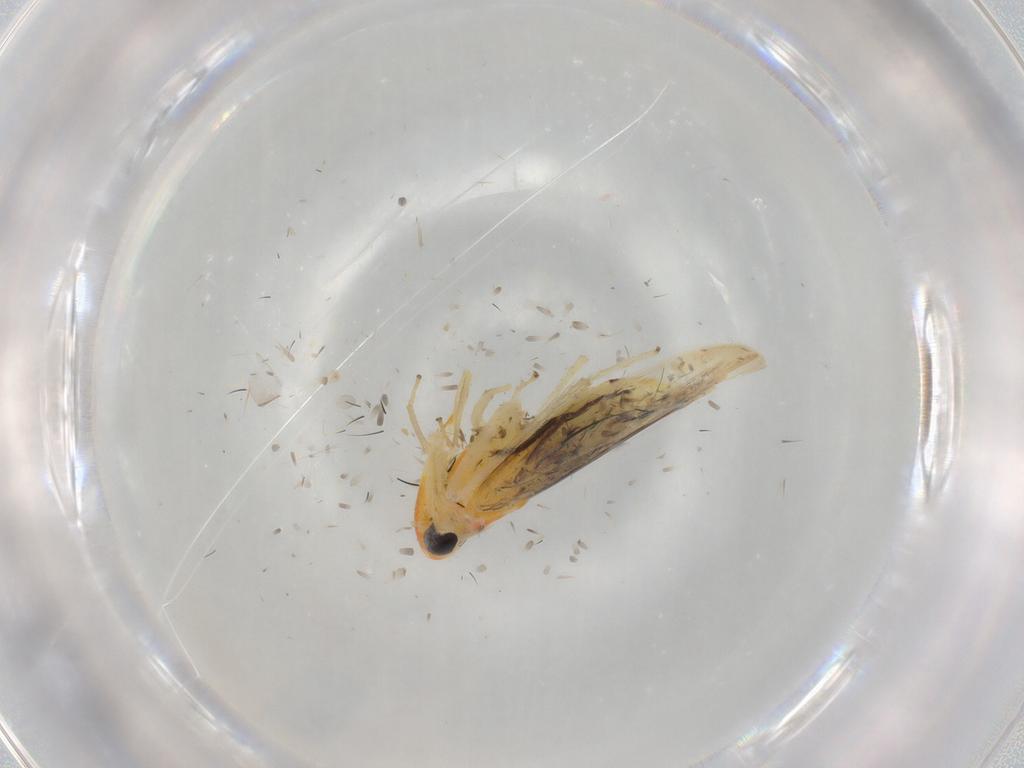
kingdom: Animalia
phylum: Arthropoda
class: Insecta
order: Hemiptera
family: Cicadellidae
